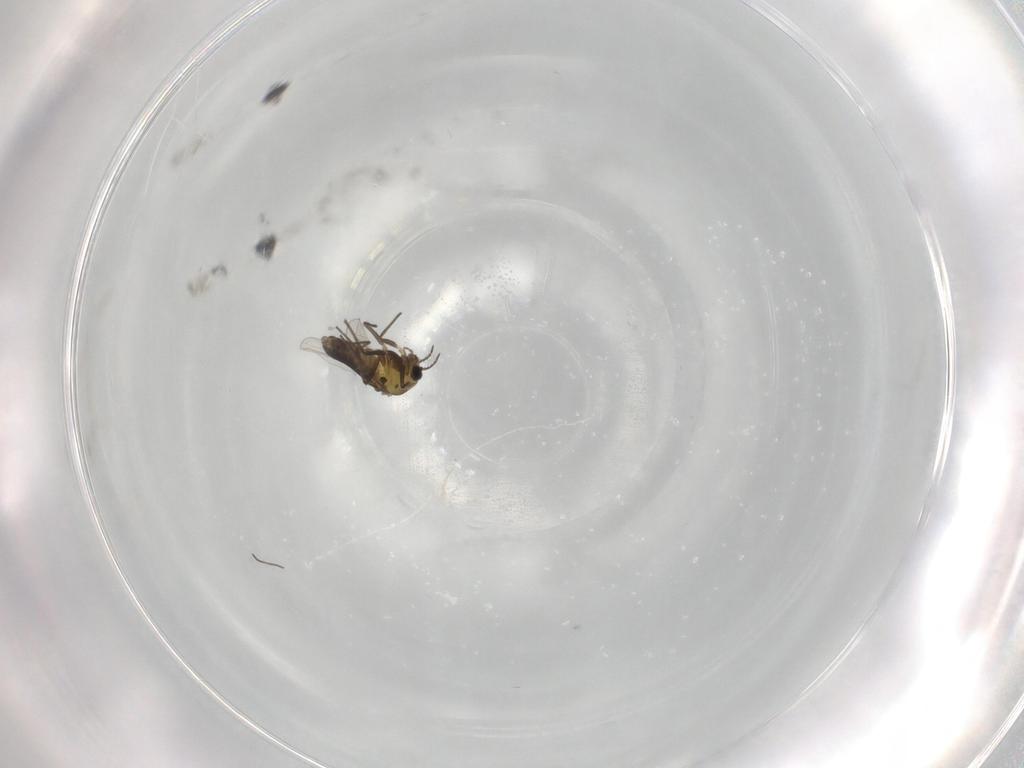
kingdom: Animalia
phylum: Arthropoda
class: Insecta
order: Diptera
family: Chironomidae
